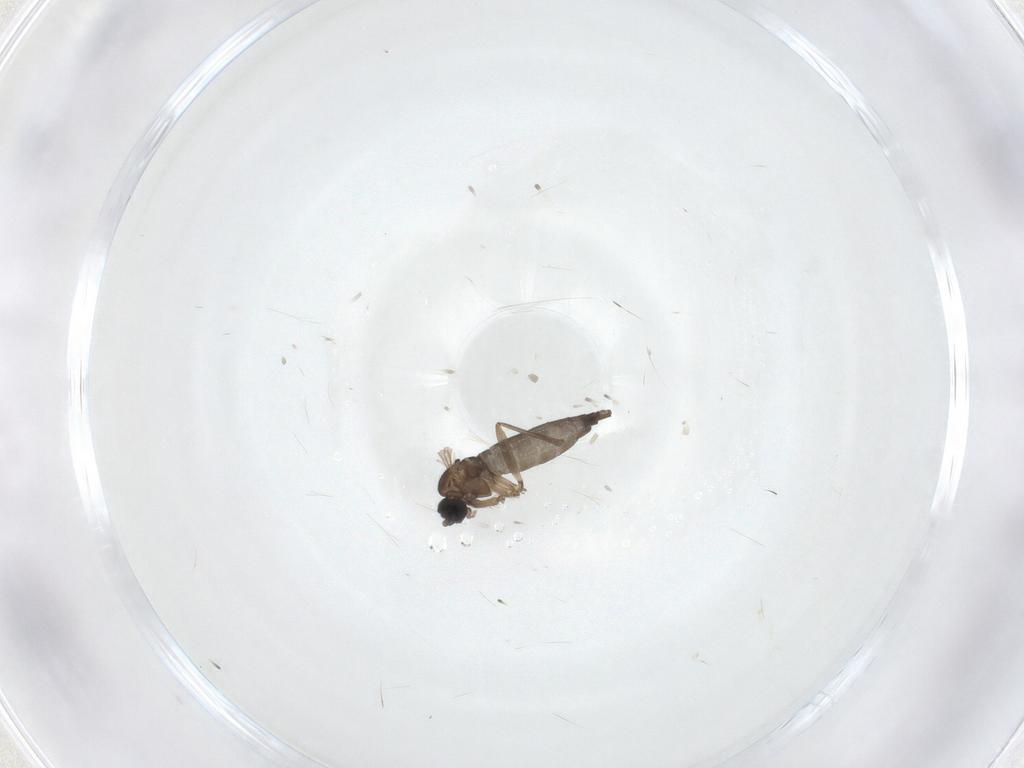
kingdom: Animalia
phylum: Arthropoda
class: Insecta
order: Diptera
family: Sciaridae
